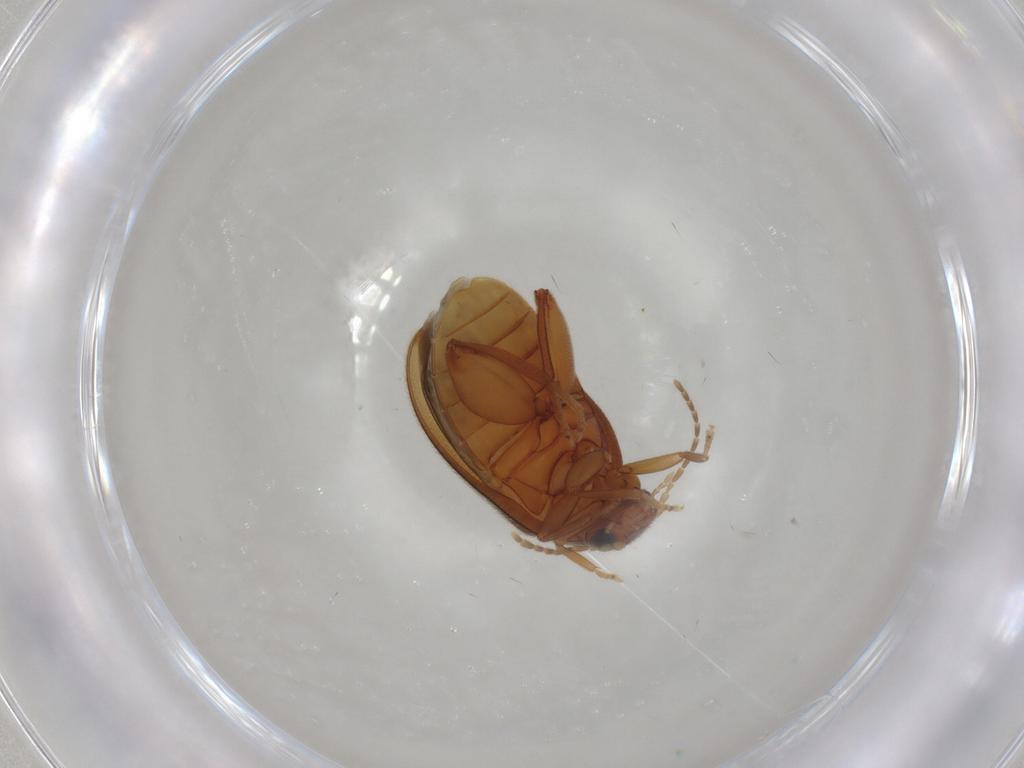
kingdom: Animalia
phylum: Arthropoda
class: Insecta
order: Coleoptera
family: Scirtidae
